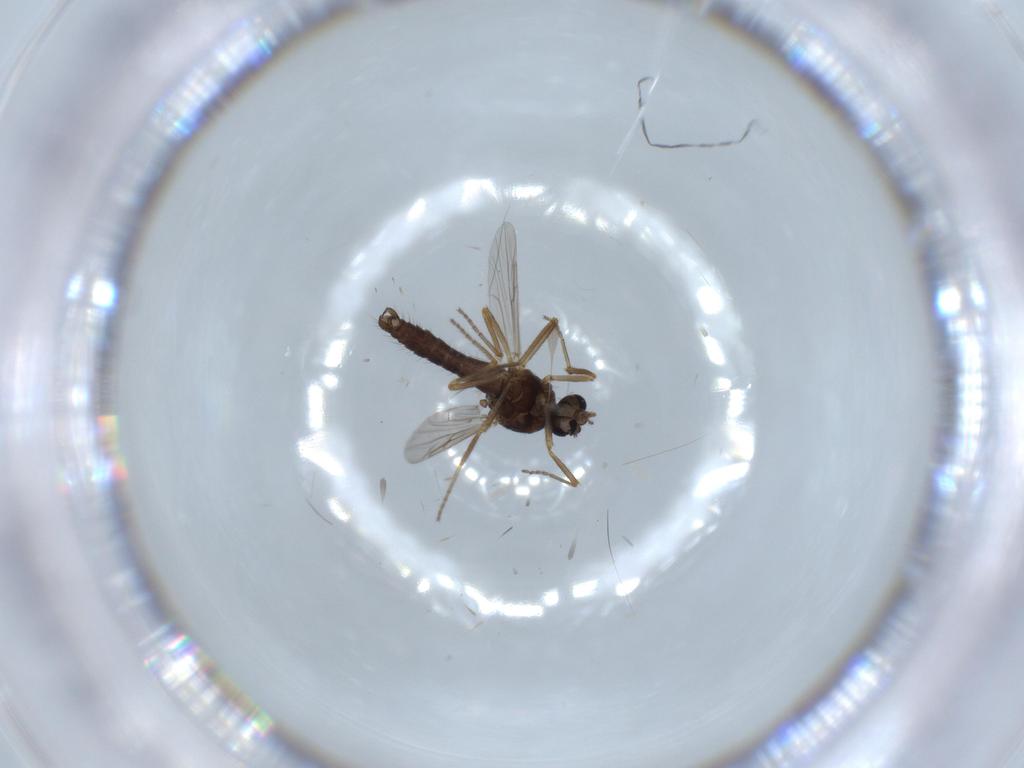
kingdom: Animalia
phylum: Arthropoda
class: Insecta
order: Diptera
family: Ceratopogonidae
